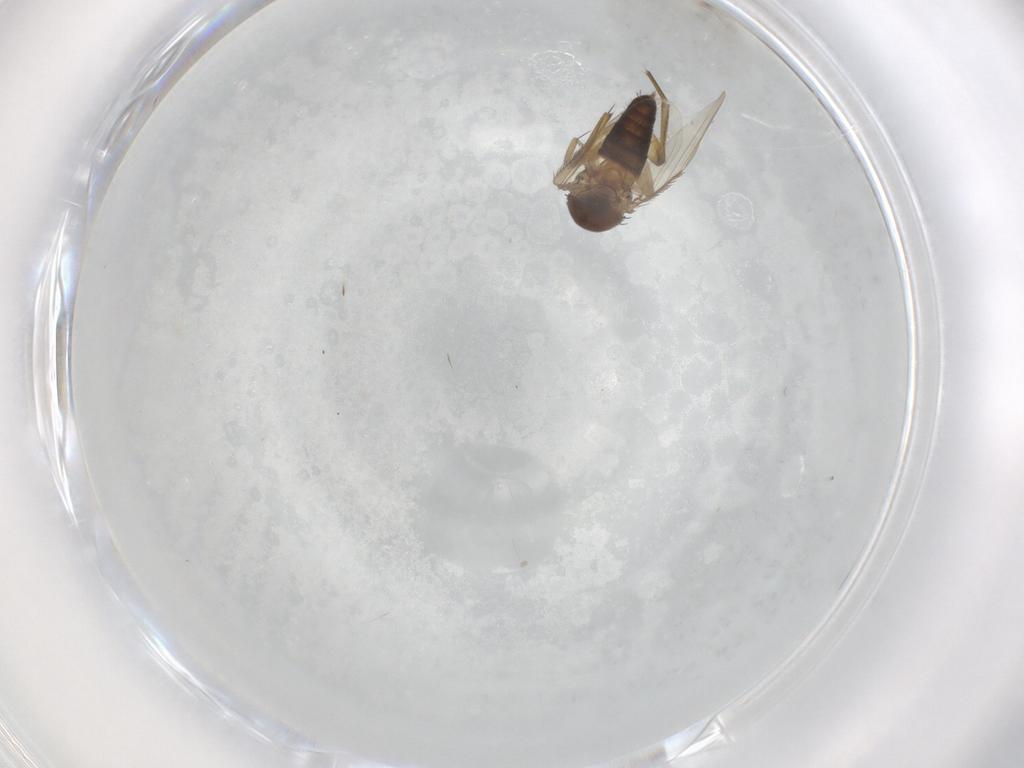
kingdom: Animalia
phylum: Arthropoda
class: Insecta
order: Diptera
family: Phoridae
